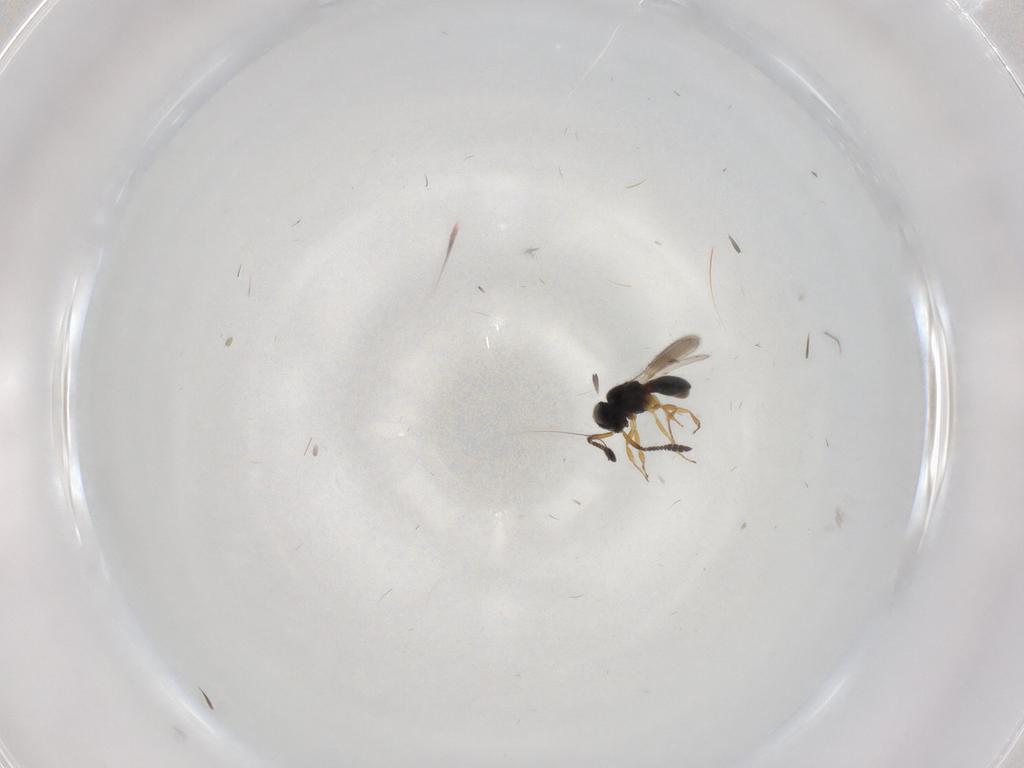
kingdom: Animalia
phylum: Arthropoda
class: Insecta
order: Hymenoptera
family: Scelionidae
